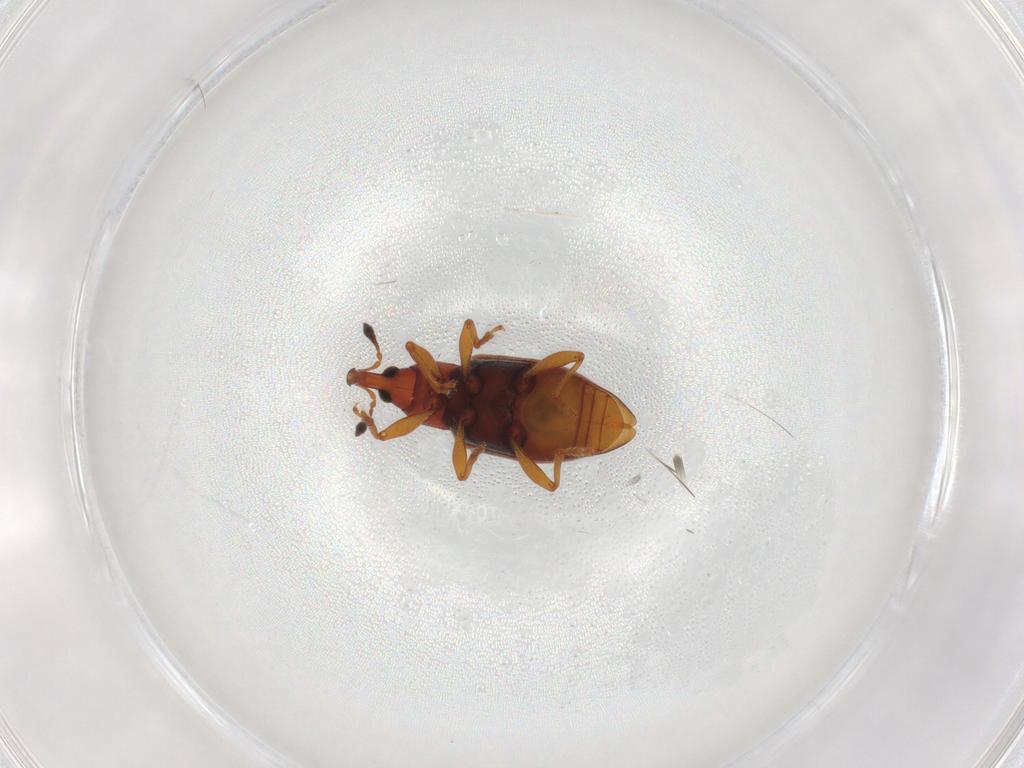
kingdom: Animalia
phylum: Arthropoda
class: Insecta
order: Coleoptera
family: Curculionidae
